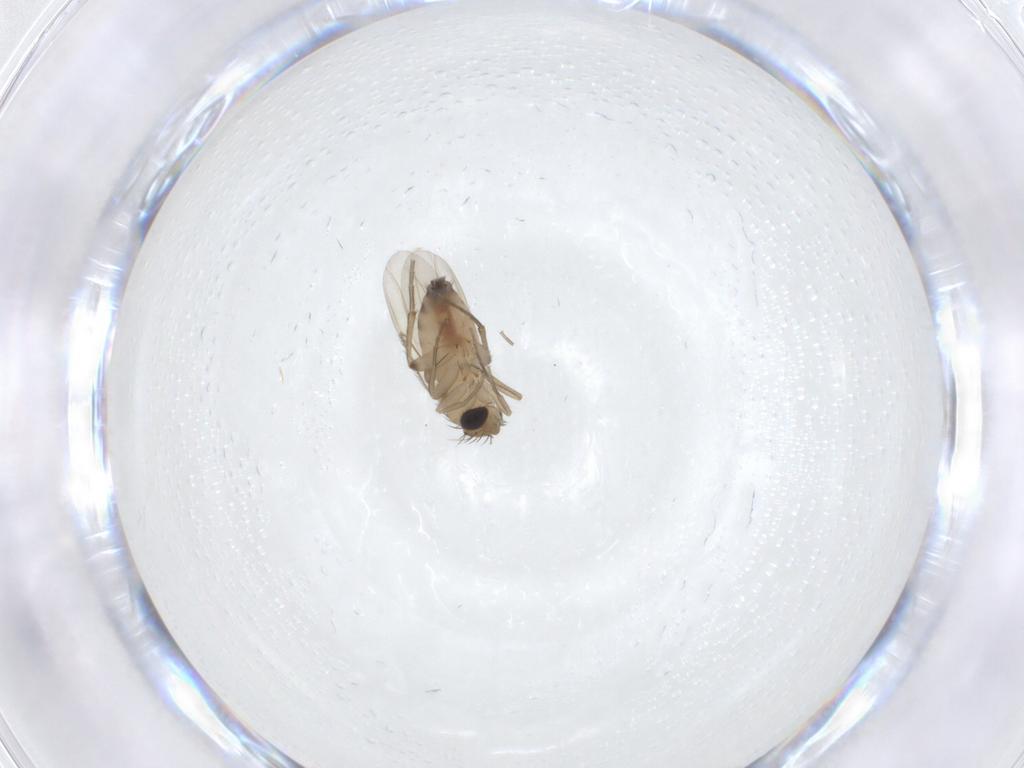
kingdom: Animalia
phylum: Arthropoda
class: Insecta
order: Diptera
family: Phoridae
